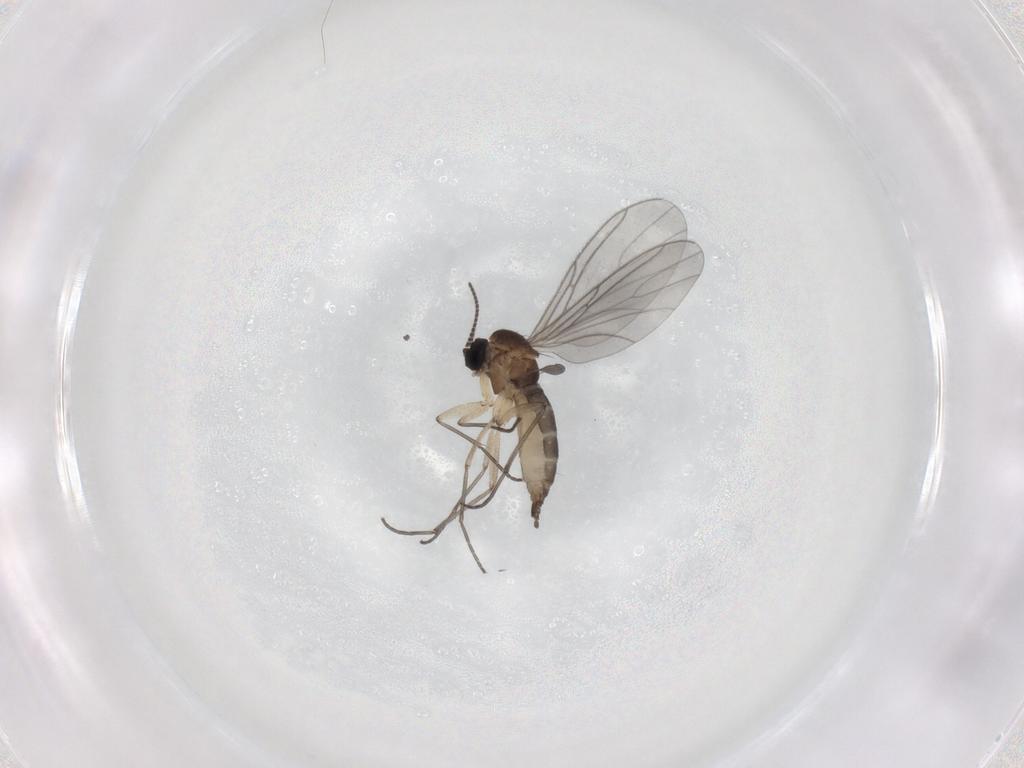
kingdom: Animalia
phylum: Arthropoda
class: Insecta
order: Diptera
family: Sciaridae
